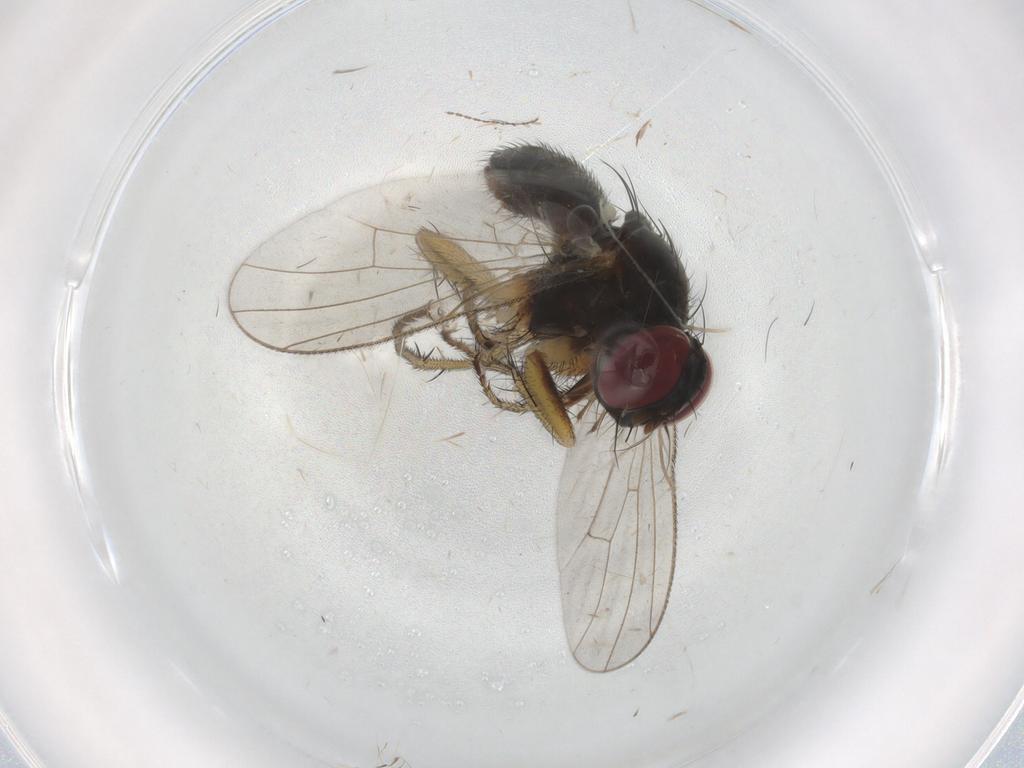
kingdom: Animalia
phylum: Arthropoda
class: Insecta
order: Diptera
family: Muscidae
